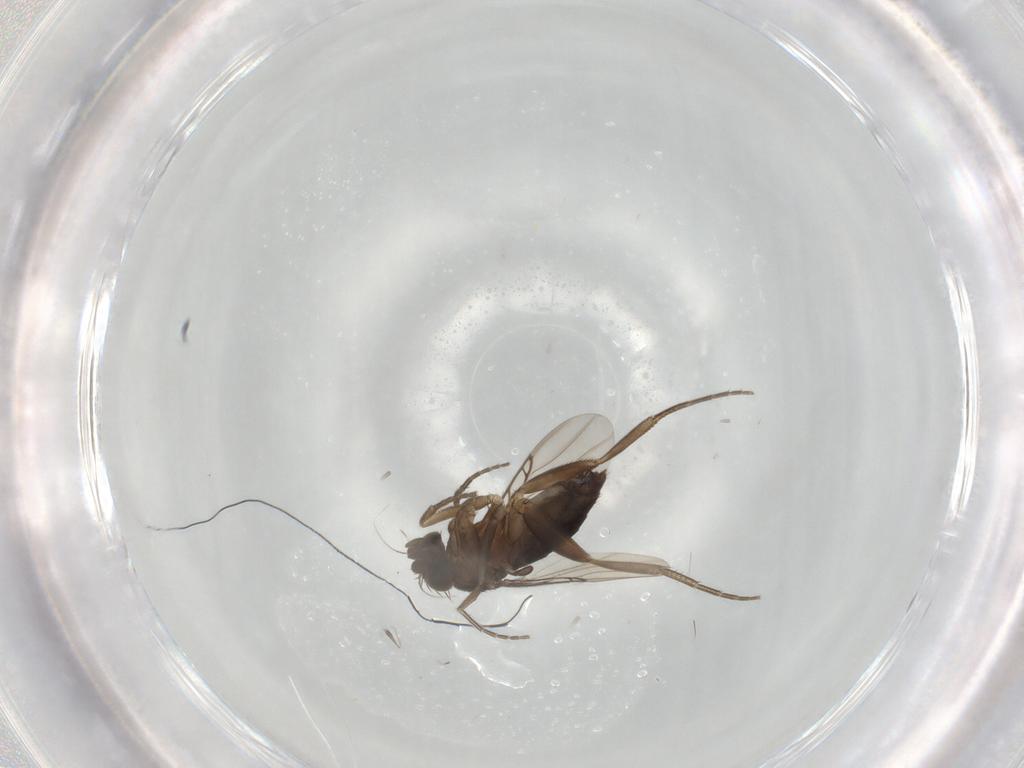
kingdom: Animalia
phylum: Arthropoda
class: Insecta
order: Diptera
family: Phoridae
